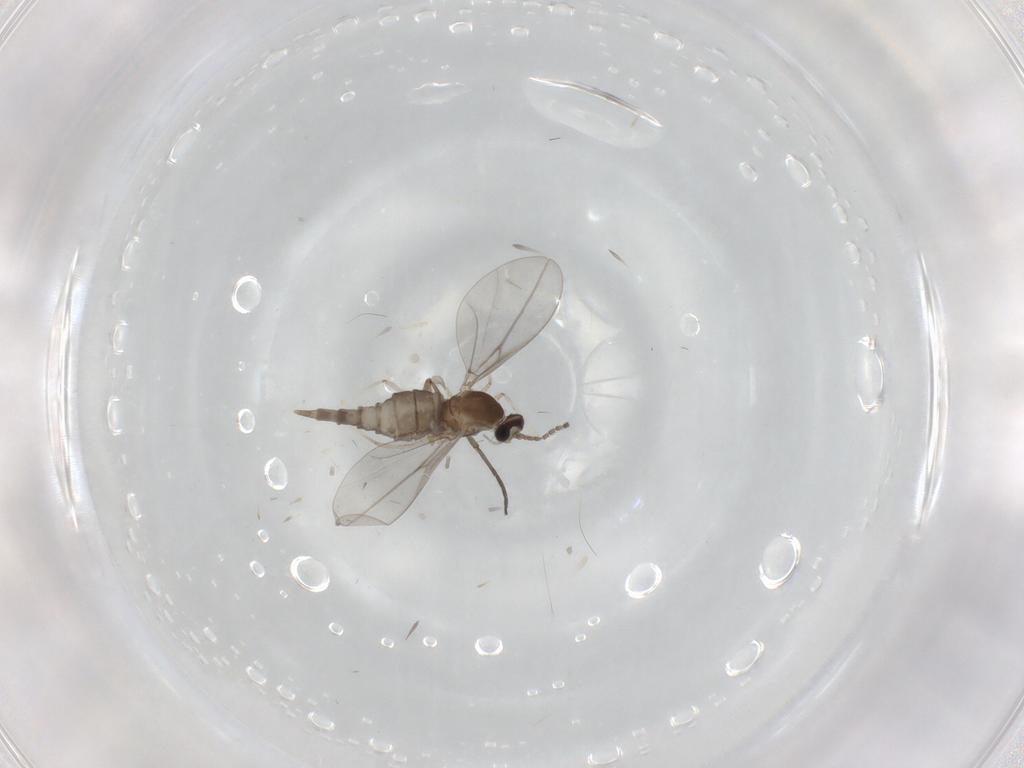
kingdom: Animalia
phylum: Arthropoda
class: Insecta
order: Diptera
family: Cecidomyiidae
